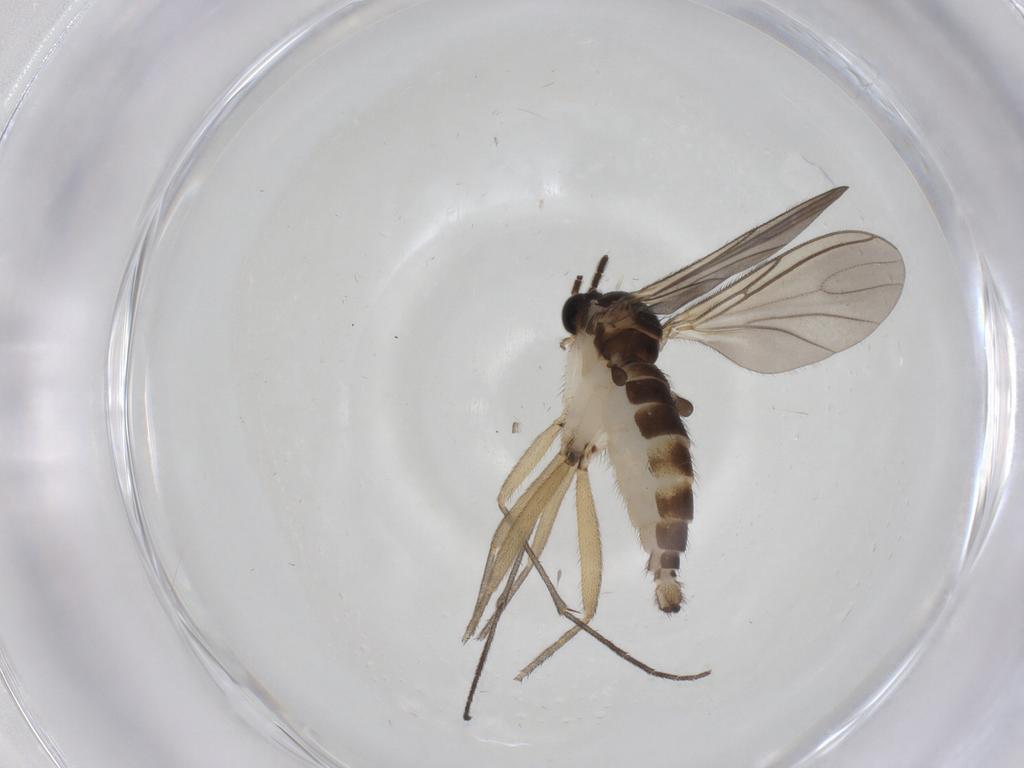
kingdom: Animalia
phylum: Arthropoda
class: Insecta
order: Diptera
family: Sciaridae
